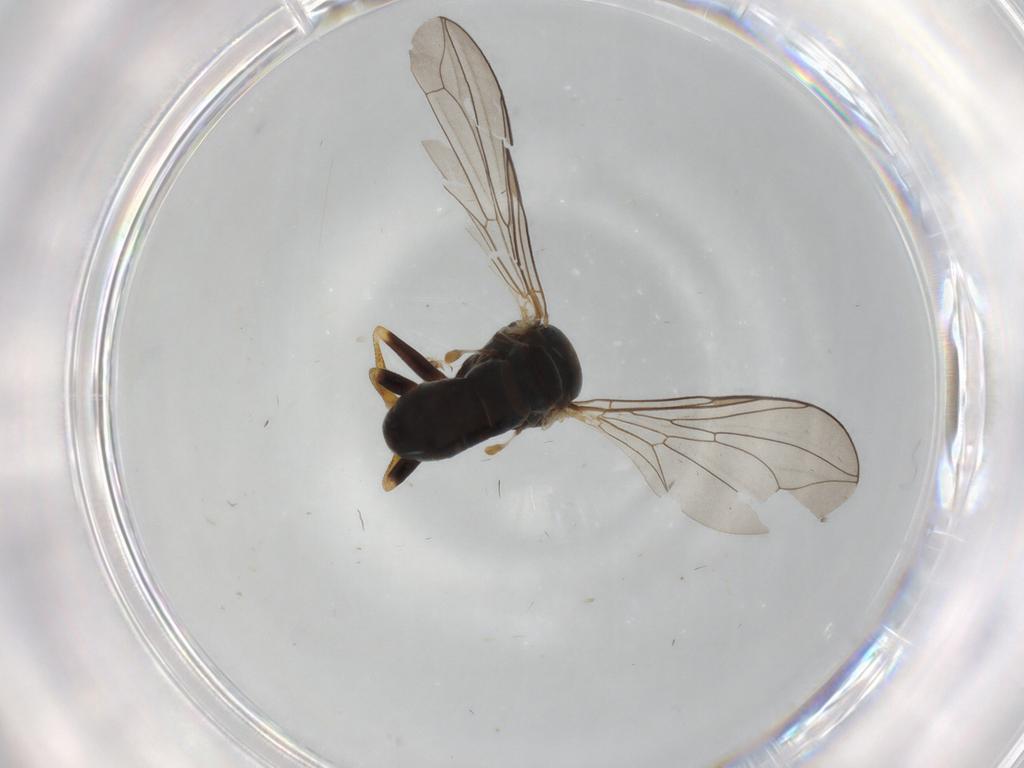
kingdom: Animalia
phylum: Arthropoda
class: Insecta
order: Diptera
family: Pipunculidae
